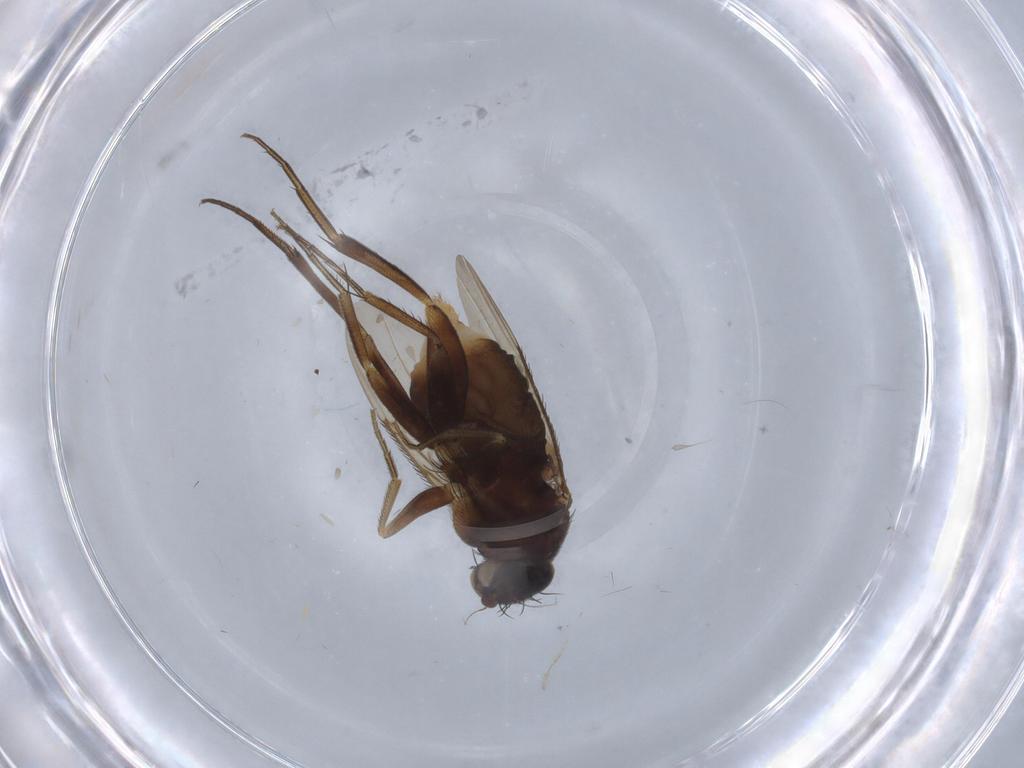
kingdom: Animalia
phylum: Arthropoda
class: Insecta
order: Diptera
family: Phoridae
